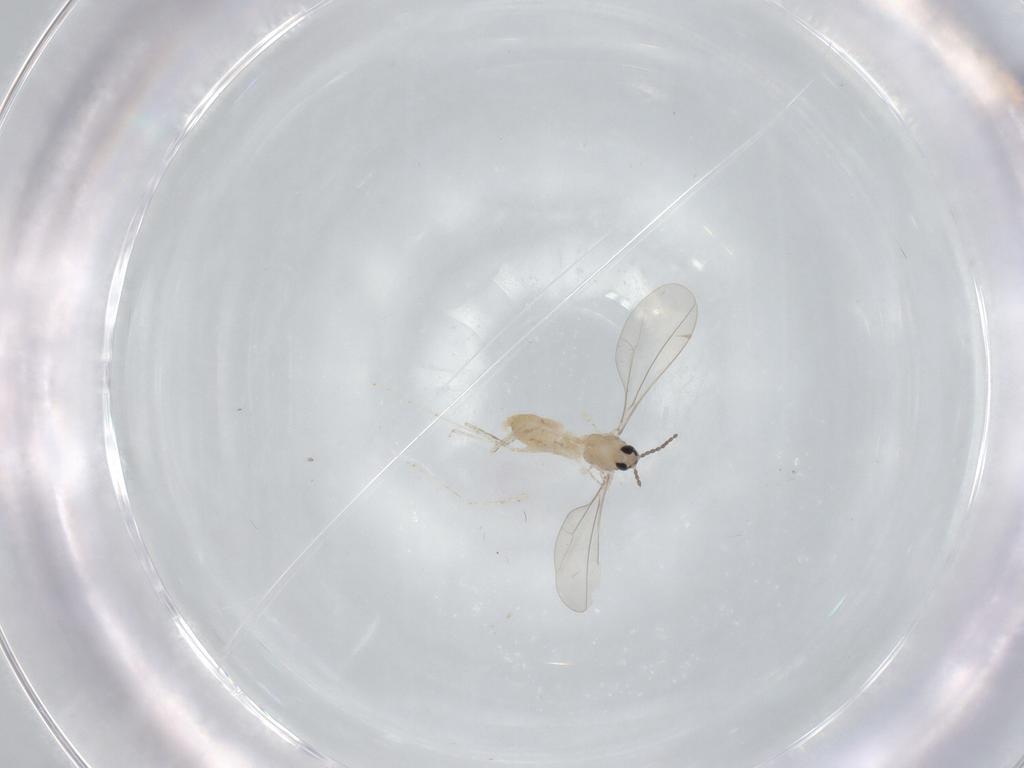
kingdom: Animalia
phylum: Arthropoda
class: Insecta
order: Diptera
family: Cecidomyiidae
